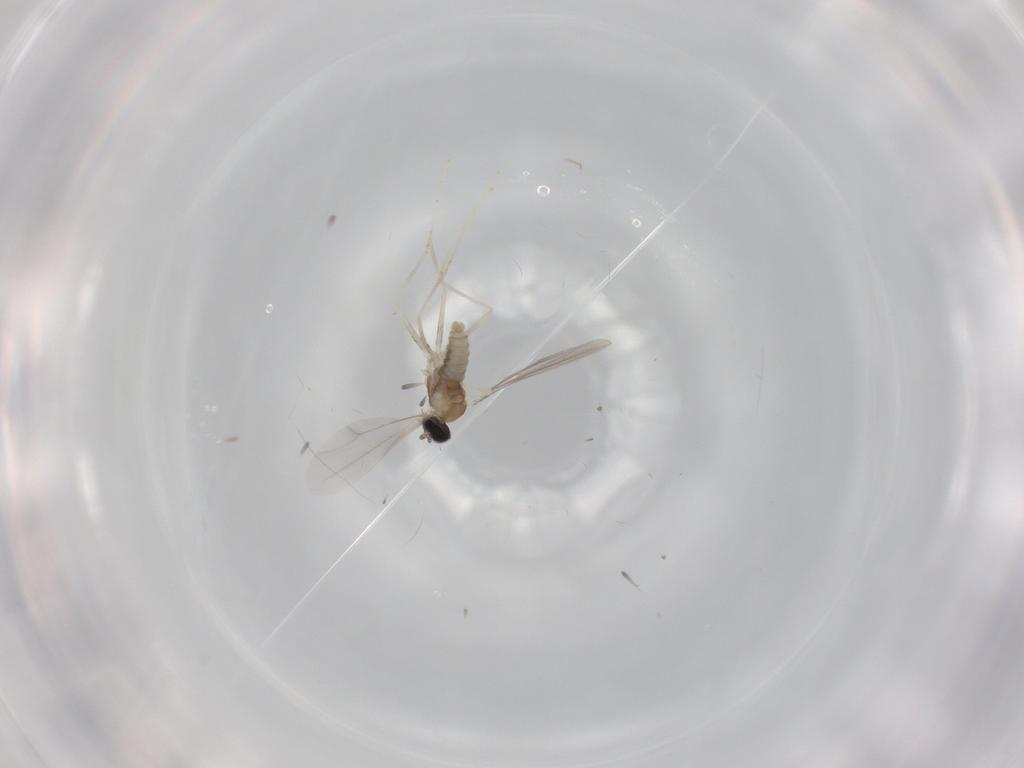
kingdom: Animalia
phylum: Arthropoda
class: Insecta
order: Diptera
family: Cecidomyiidae
